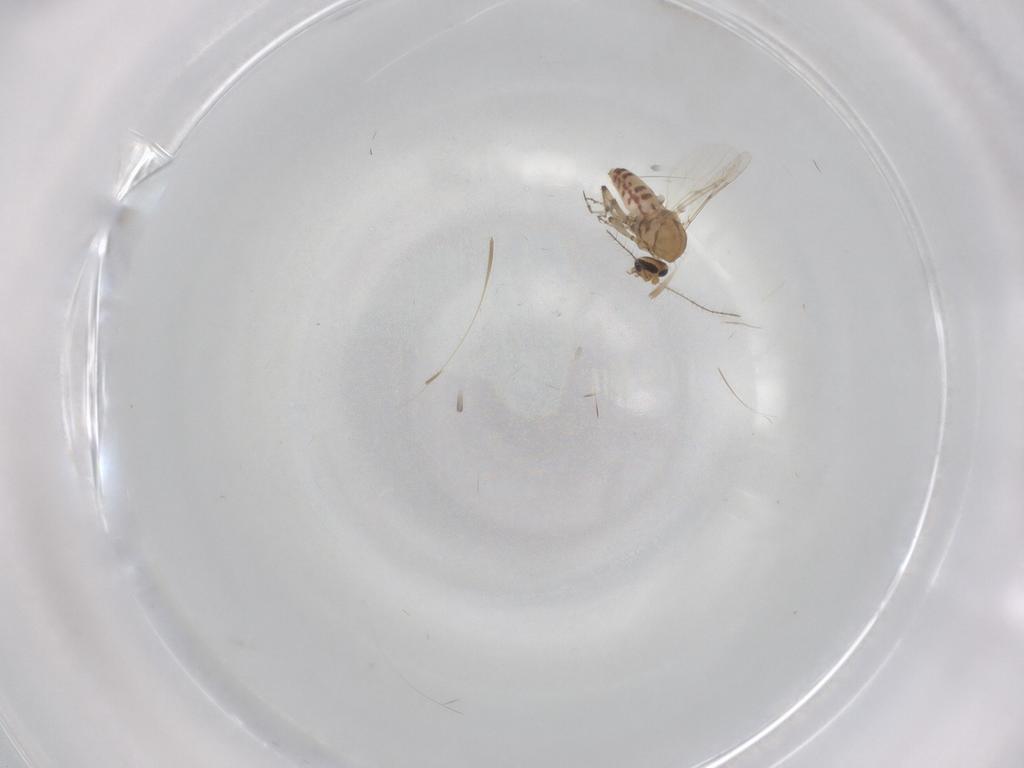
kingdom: Animalia
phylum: Arthropoda
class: Insecta
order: Diptera
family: Ceratopogonidae
